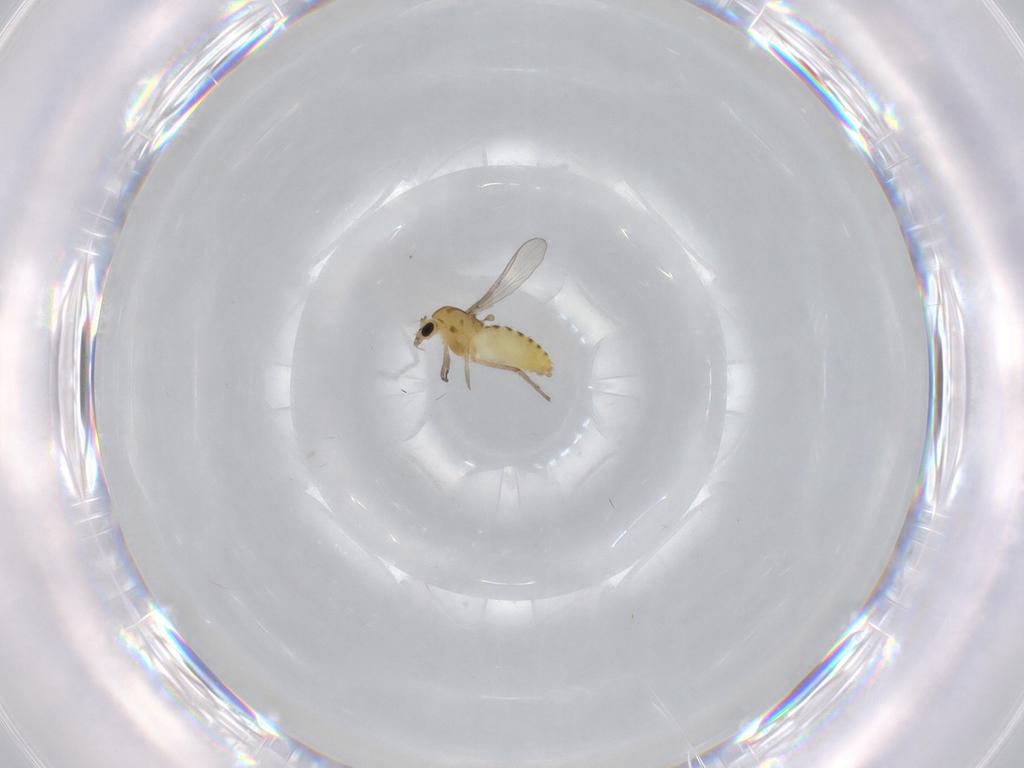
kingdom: Animalia
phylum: Arthropoda
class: Insecta
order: Diptera
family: Chironomidae
